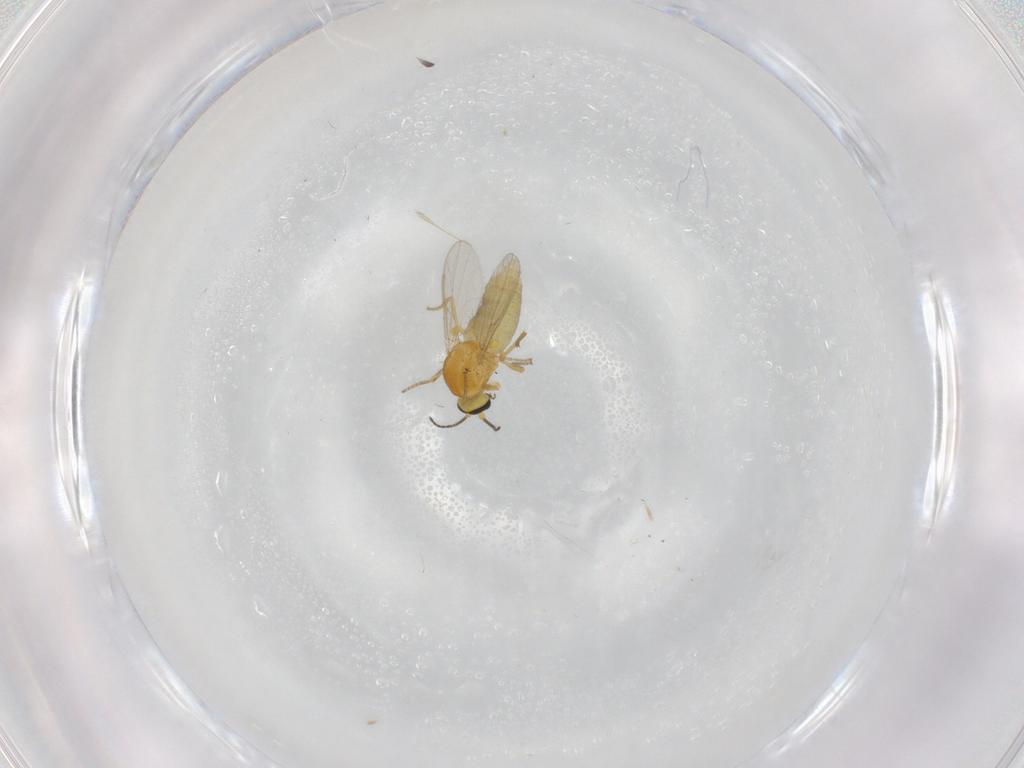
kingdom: Animalia
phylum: Arthropoda
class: Insecta
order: Diptera
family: Ceratopogonidae
